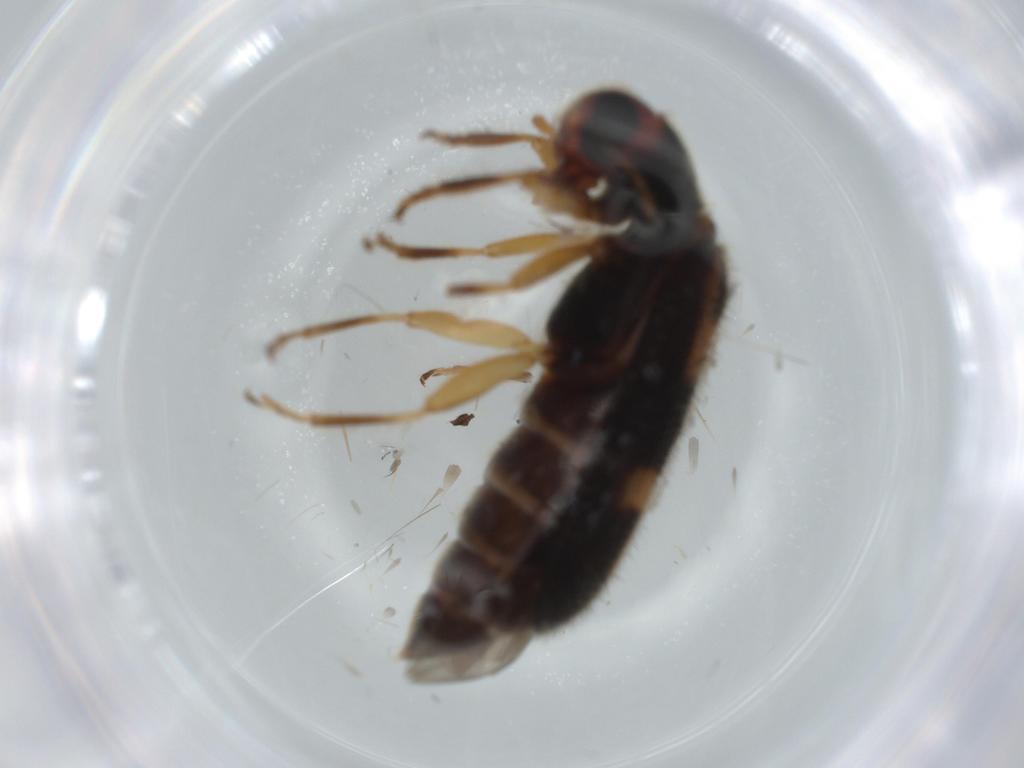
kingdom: Animalia
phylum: Arthropoda
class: Insecta
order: Coleoptera
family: Cleridae
